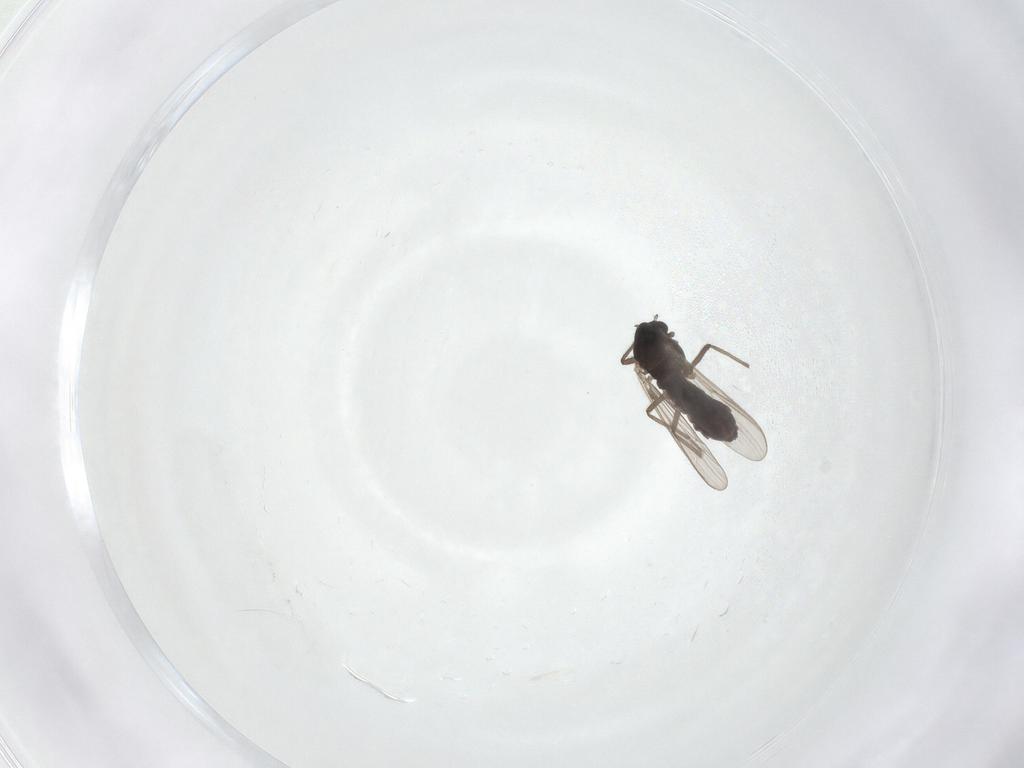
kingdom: Animalia
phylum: Arthropoda
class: Insecta
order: Diptera
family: Chironomidae
